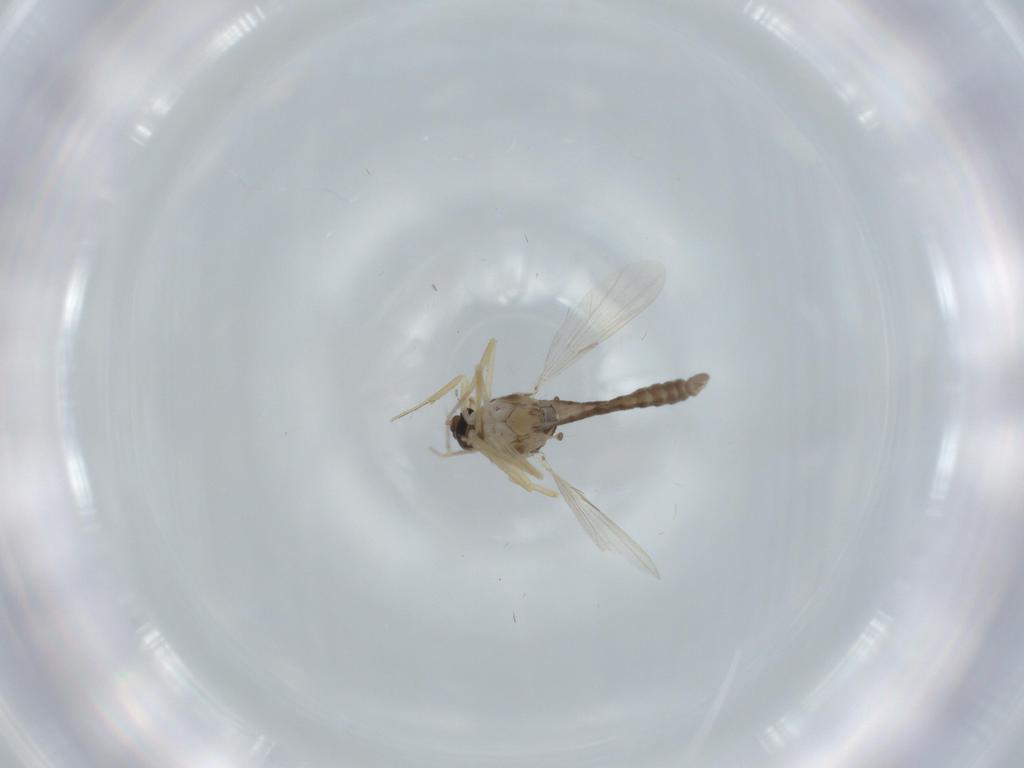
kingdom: Animalia
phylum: Arthropoda
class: Insecta
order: Diptera
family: Ceratopogonidae
